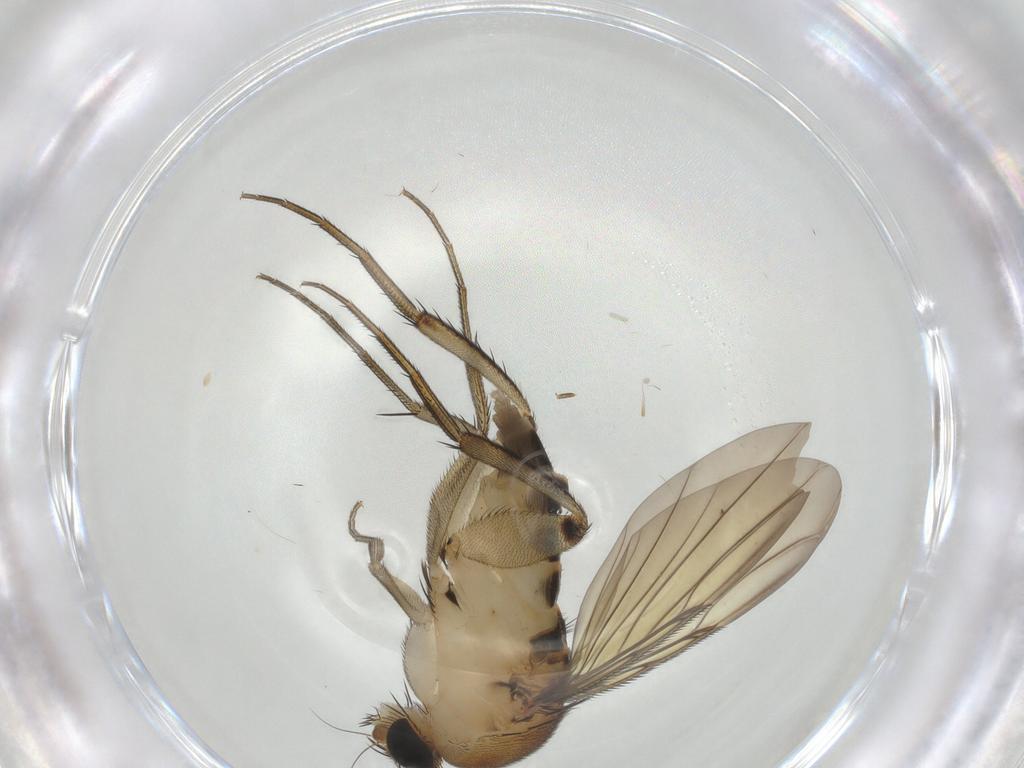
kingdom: Animalia
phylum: Arthropoda
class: Insecta
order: Diptera
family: Phoridae
